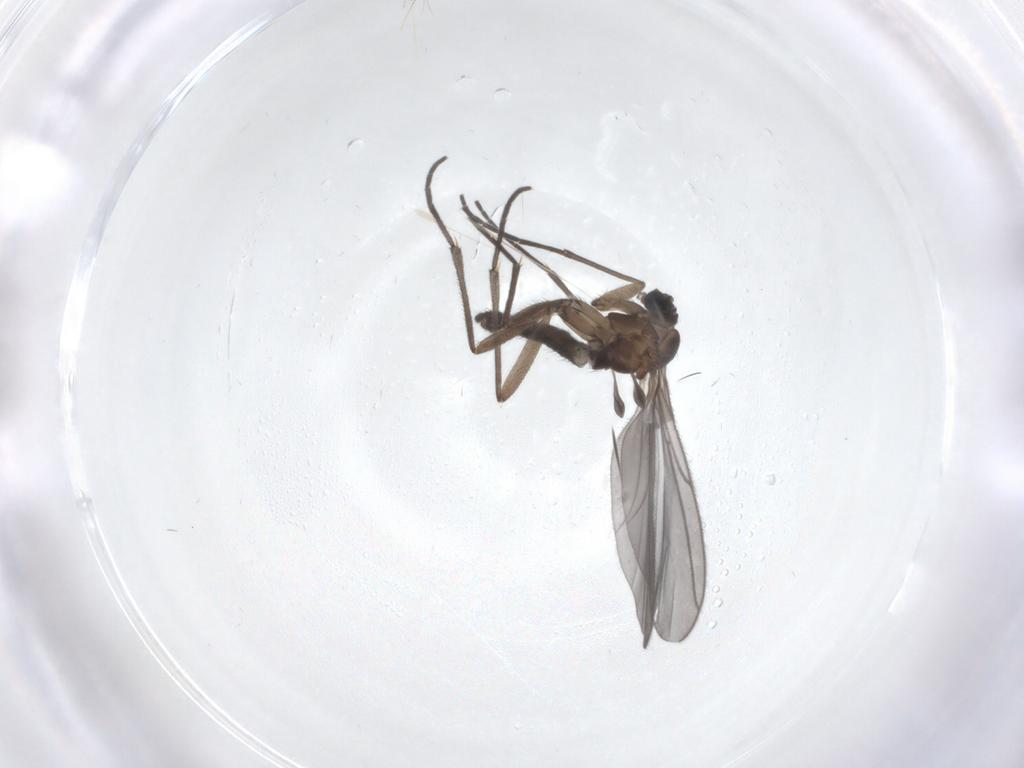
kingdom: Animalia
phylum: Arthropoda
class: Insecta
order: Diptera
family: Sciaridae
